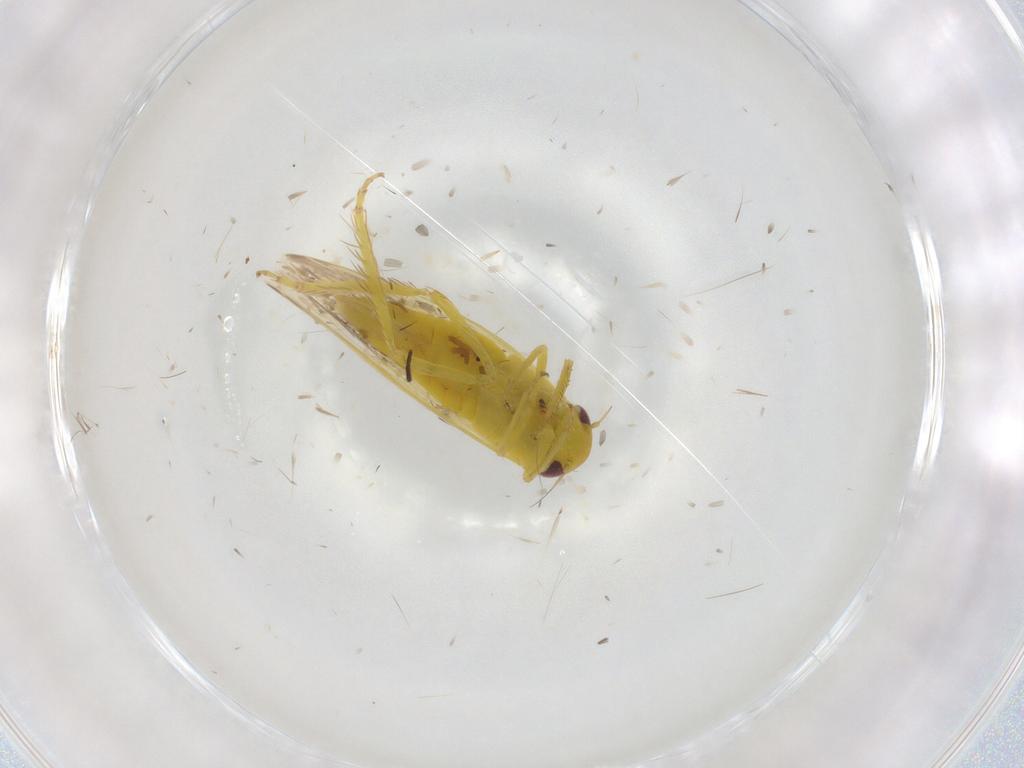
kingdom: Animalia
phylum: Arthropoda
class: Insecta
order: Hemiptera
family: Cicadellidae
